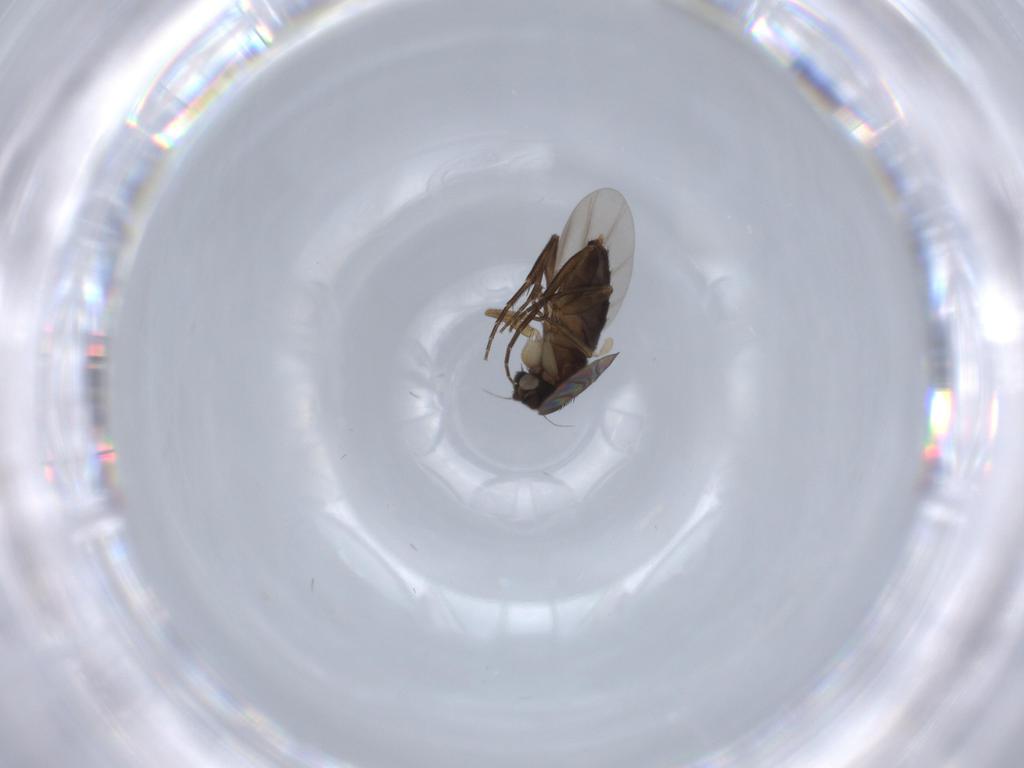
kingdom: Animalia
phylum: Arthropoda
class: Insecta
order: Diptera
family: Phoridae
